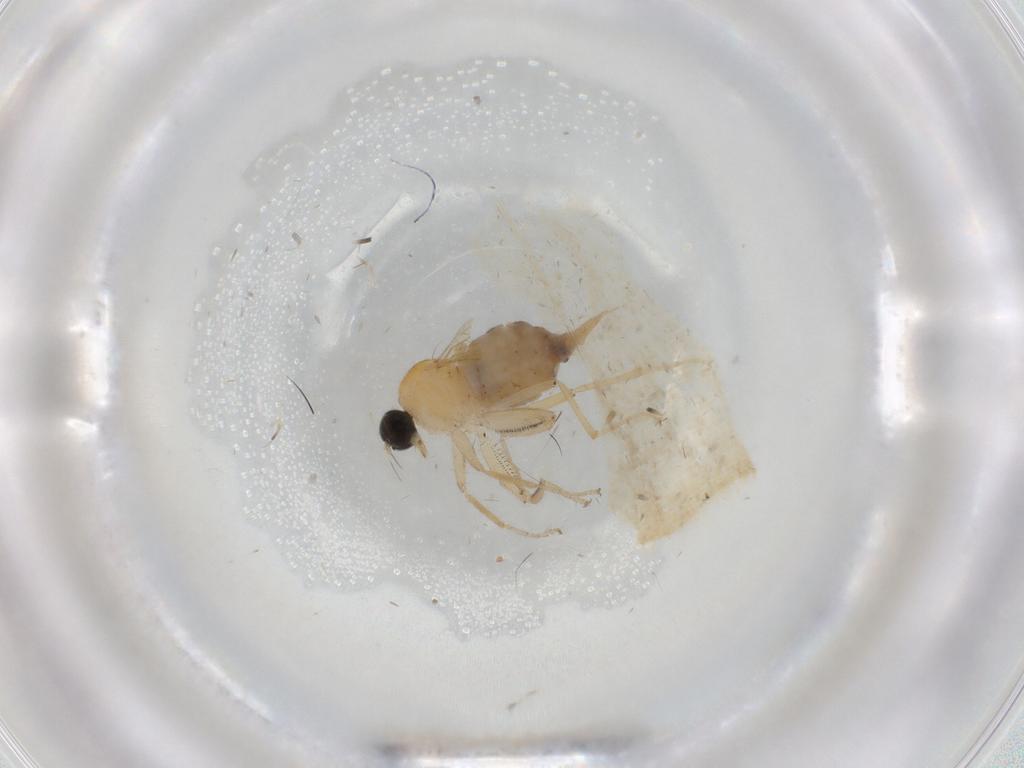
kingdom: Animalia
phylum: Arthropoda
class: Insecta
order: Diptera
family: Hybotidae
